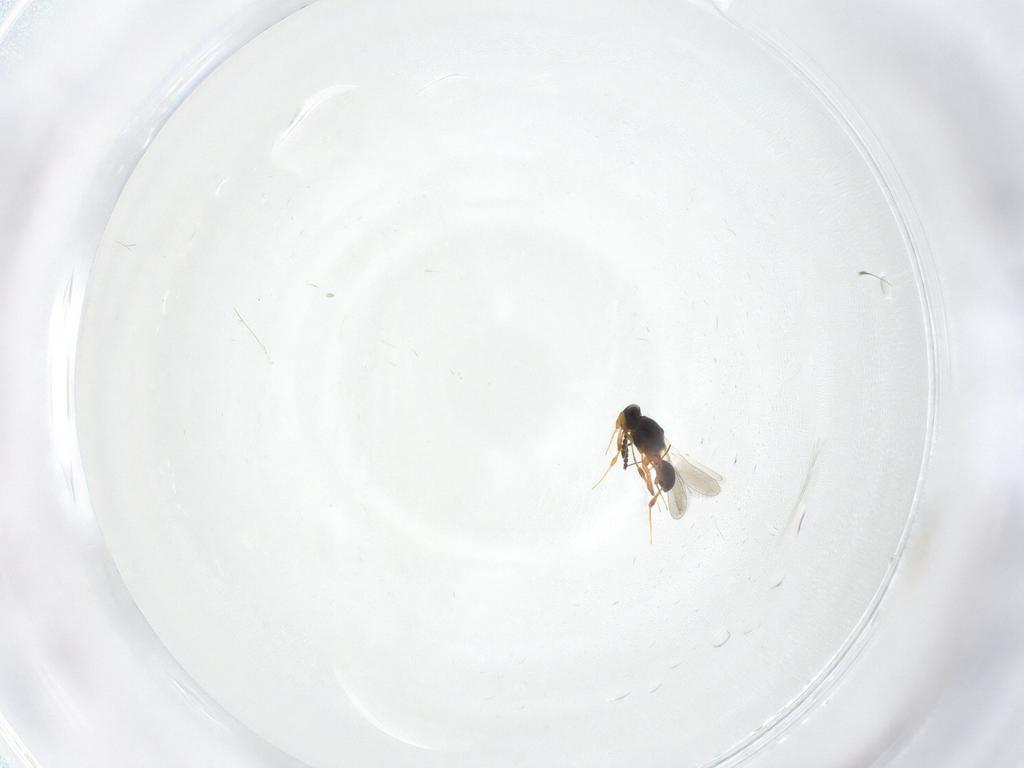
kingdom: Animalia
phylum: Arthropoda
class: Insecta
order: Hymenoptera
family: Platygastridae
